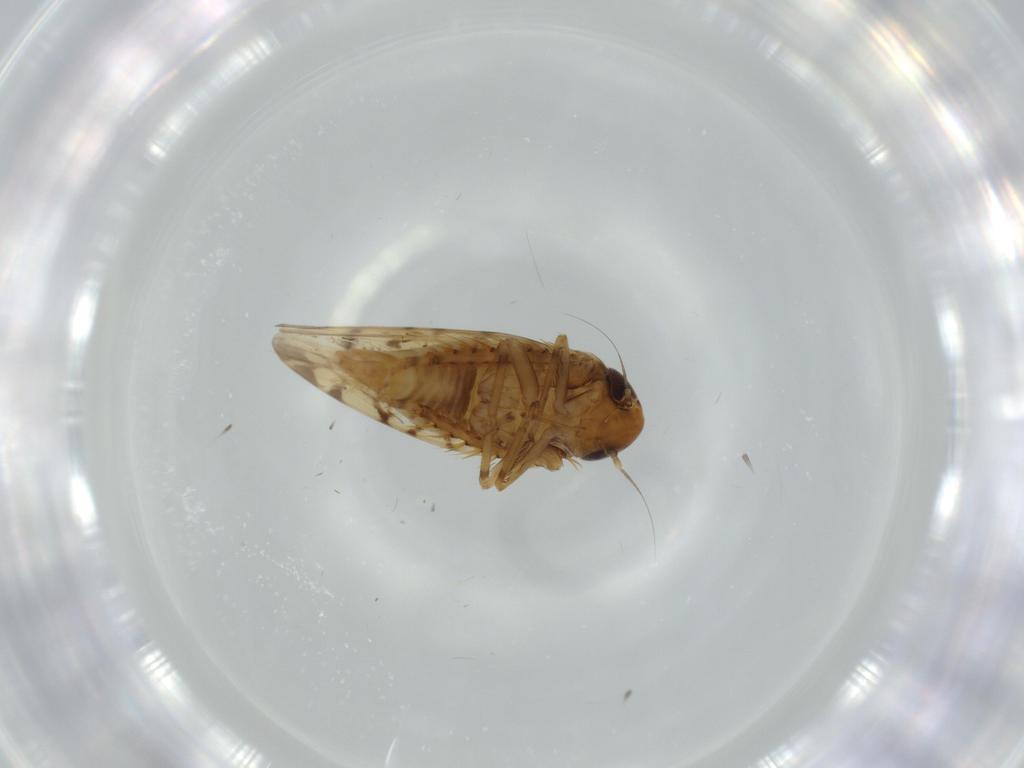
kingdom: Animalia
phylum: Arthropoda
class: Insecta
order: Hemiptera
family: Cicadellidae
